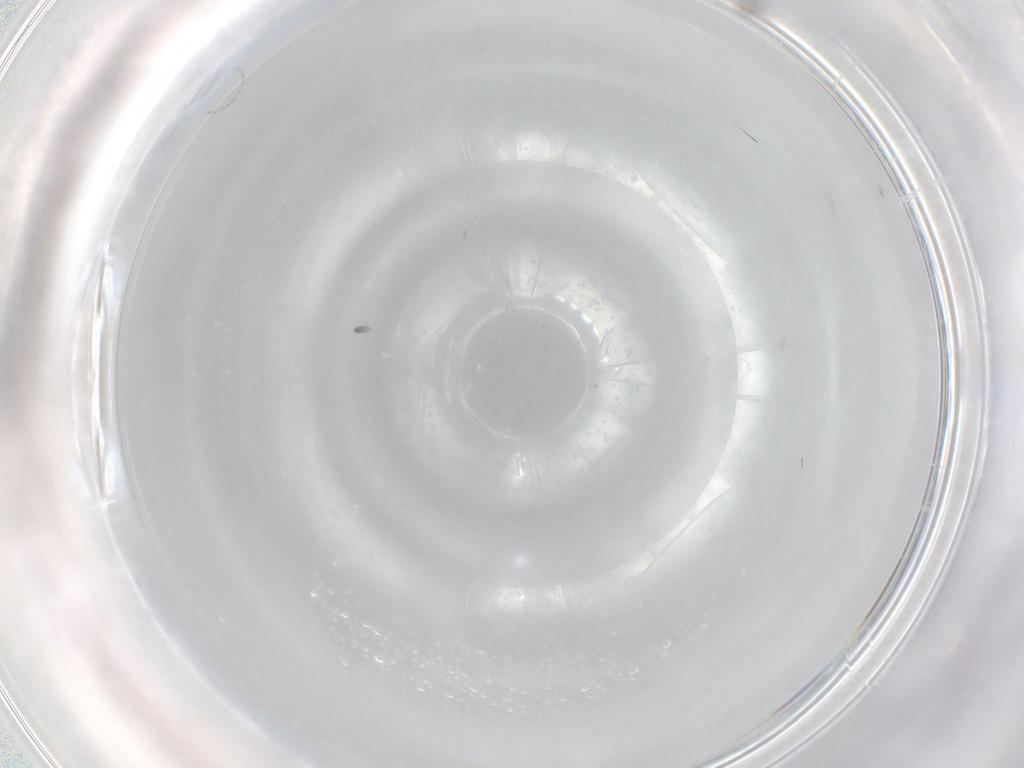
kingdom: Animalia
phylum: Arthropoda
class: Insecta
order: Diptera
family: Cecidomyiidae
